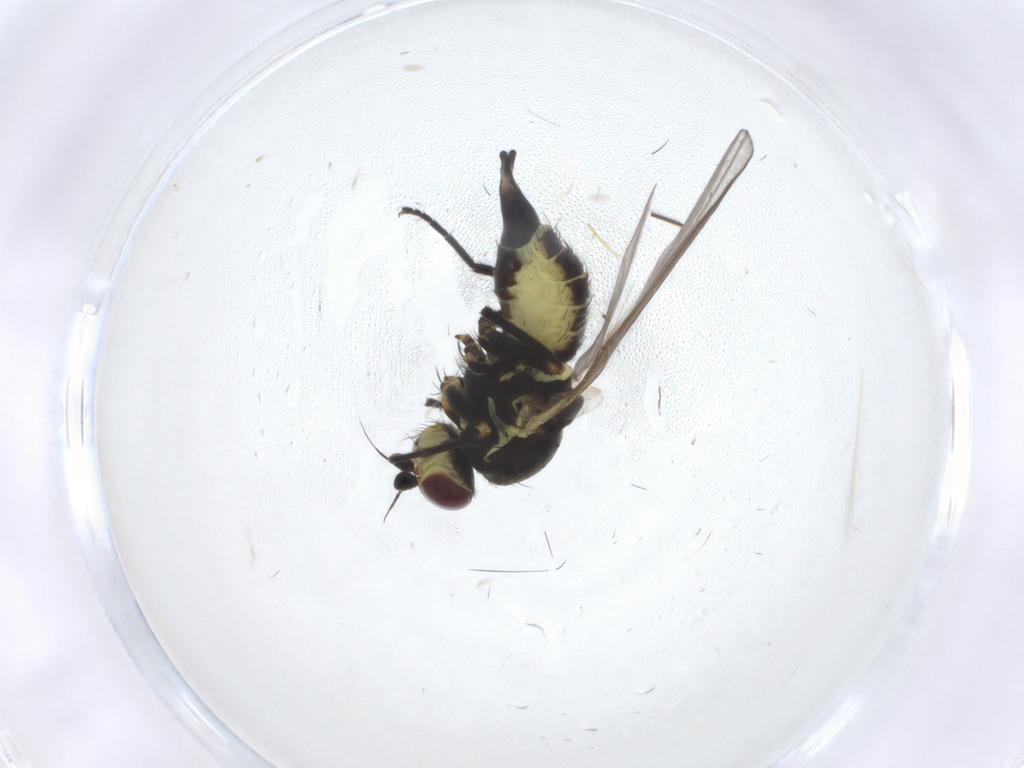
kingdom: Animalia
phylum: Arthropoda
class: Insecta
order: Diptera
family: Agromyzidae
